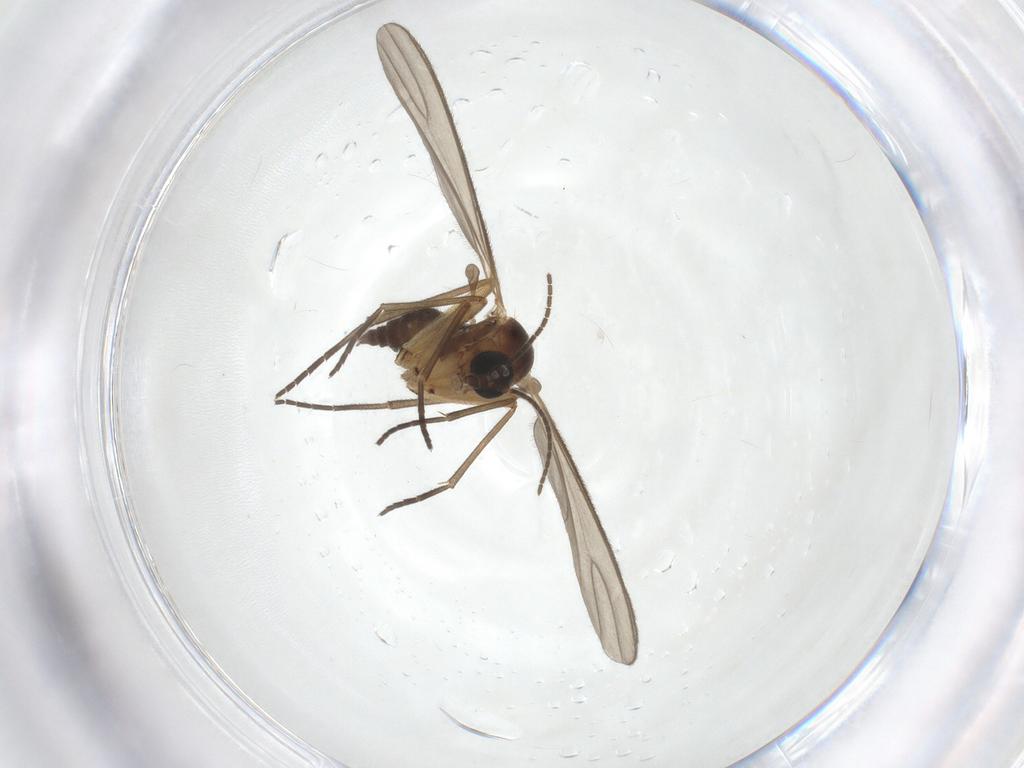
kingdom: Animalia
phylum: Arthropoda
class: Insecta
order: Diptera
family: Sciaridae
